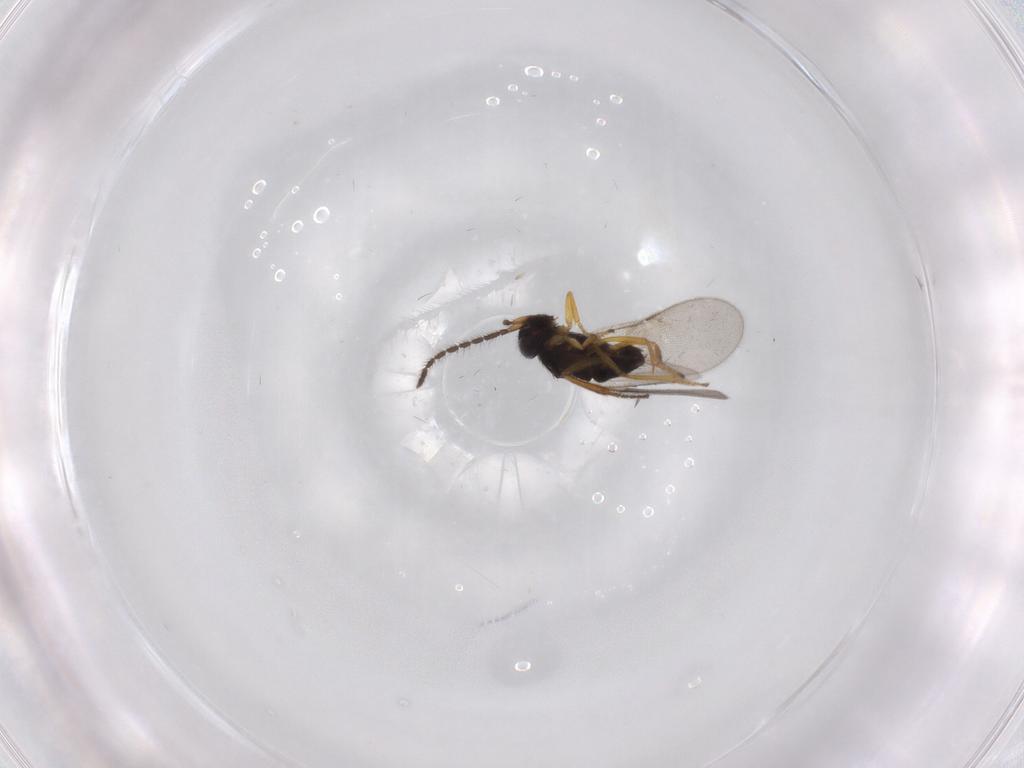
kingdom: Animalia
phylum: Arthropoda
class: Insecta
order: Hymenoptera
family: Encyrtidae
